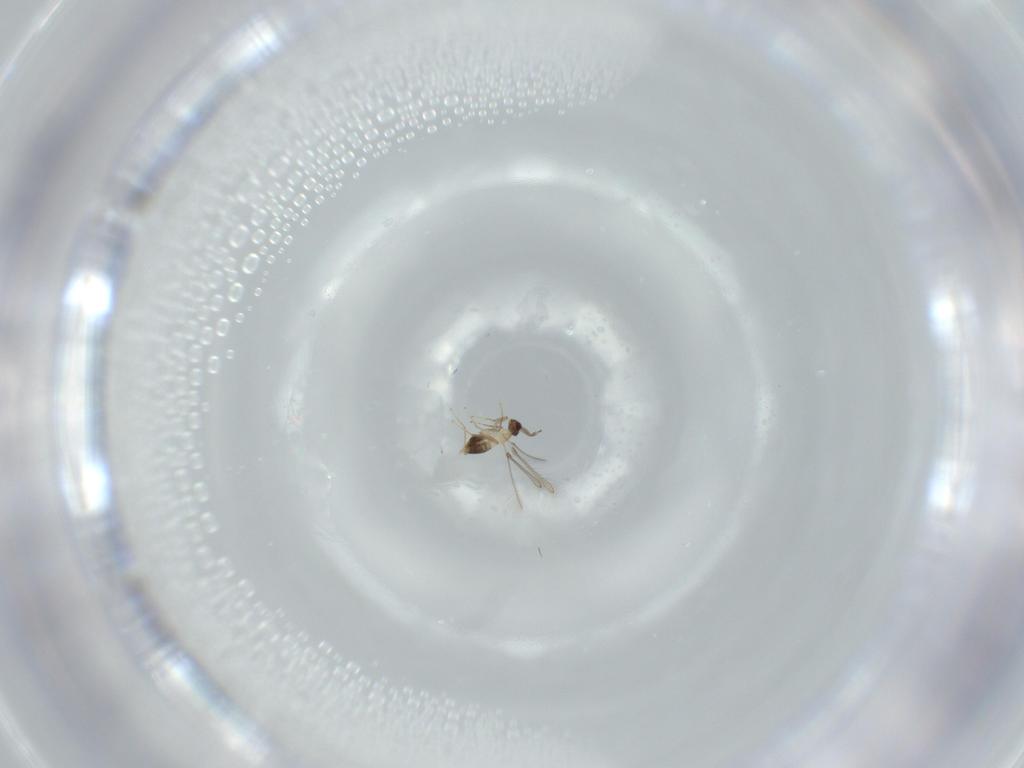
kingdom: Animalia
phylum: Arthropoda
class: Insecta
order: Hymenoptera
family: Mymaridae
